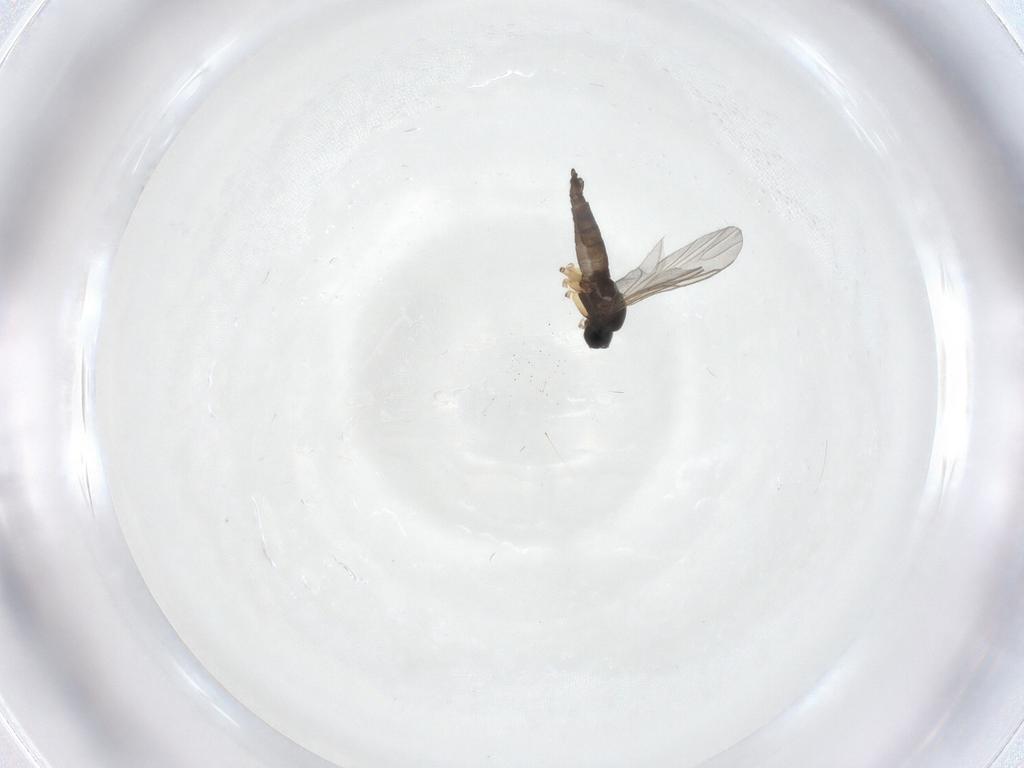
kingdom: Animalia
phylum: Arthropoda
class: Insecta
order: Diptera
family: Sciaridae
